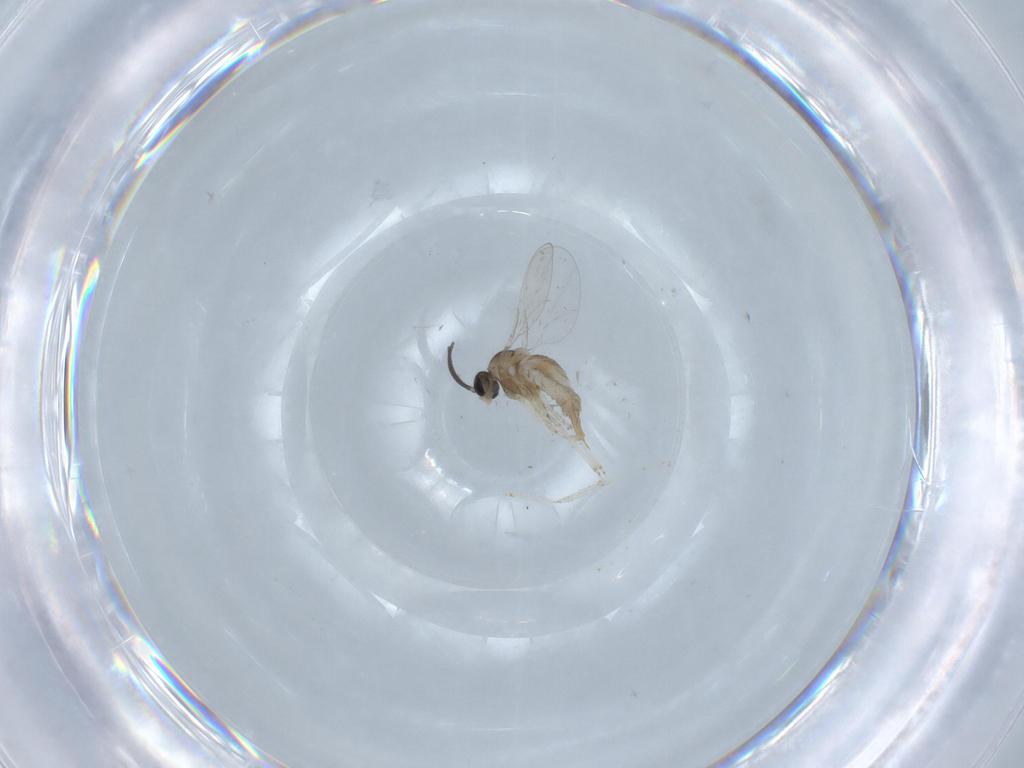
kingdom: Animalia
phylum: Arthropoda
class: Insecta
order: Diptera
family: Cecidomyiidae
